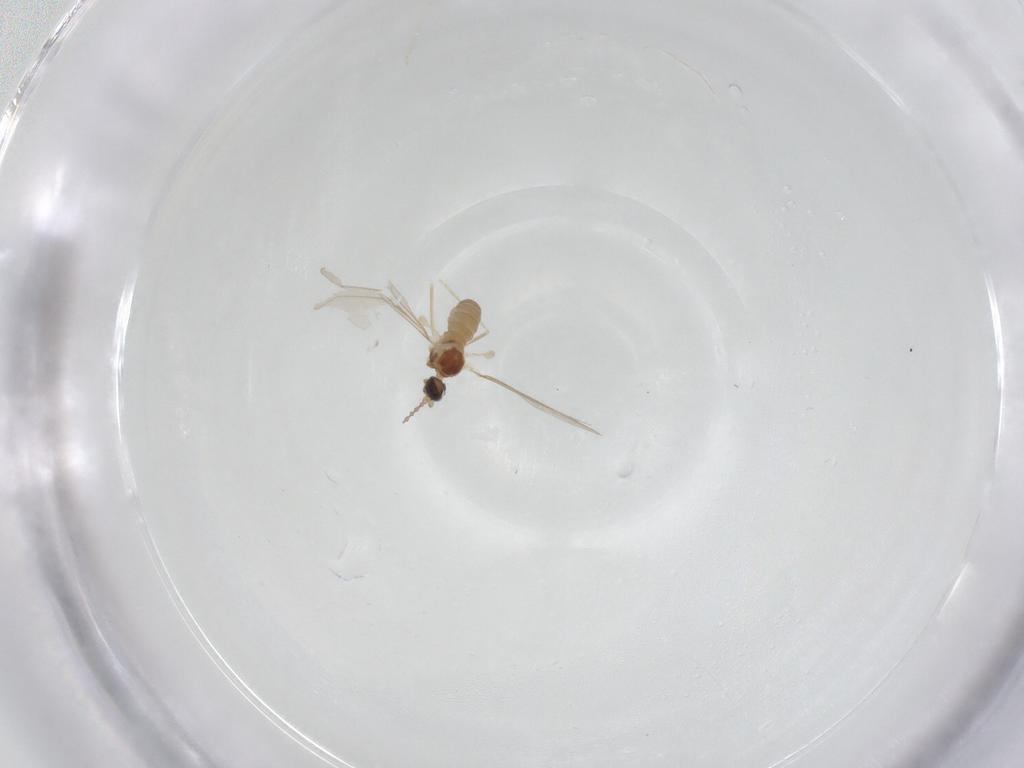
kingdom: Animalia
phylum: Arthropoda
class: Insecta
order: Diptera
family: Cecidomyiidae
